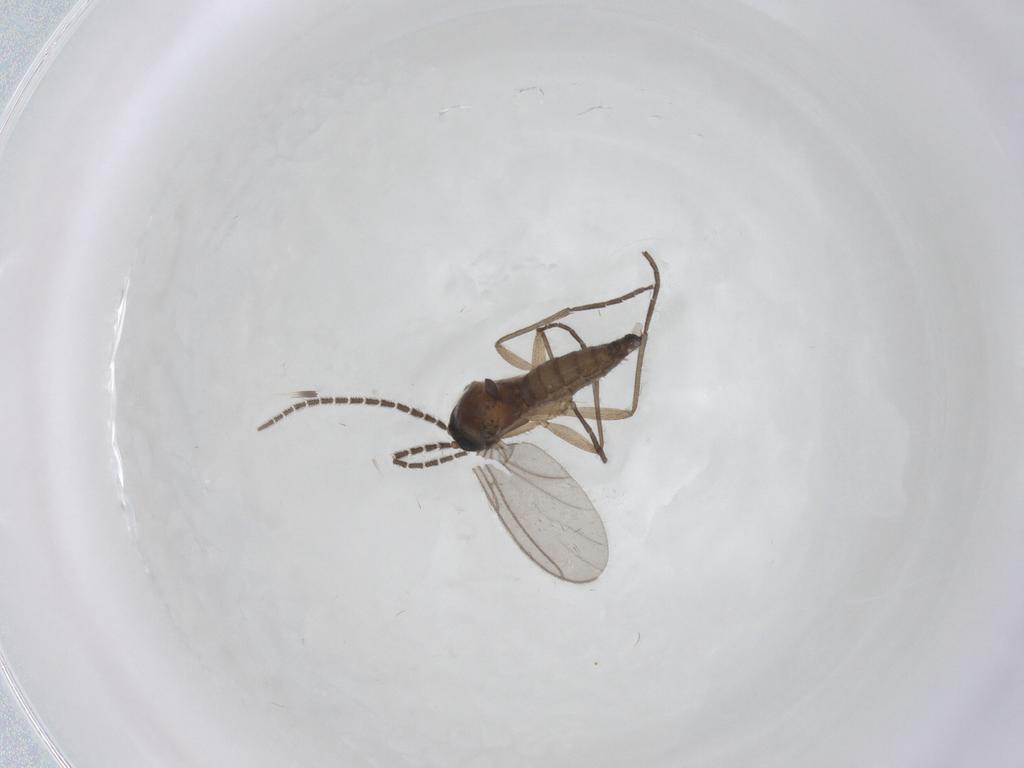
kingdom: Animalia
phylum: Arthropoda
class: Insecta
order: Diptera
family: Sciaridae
